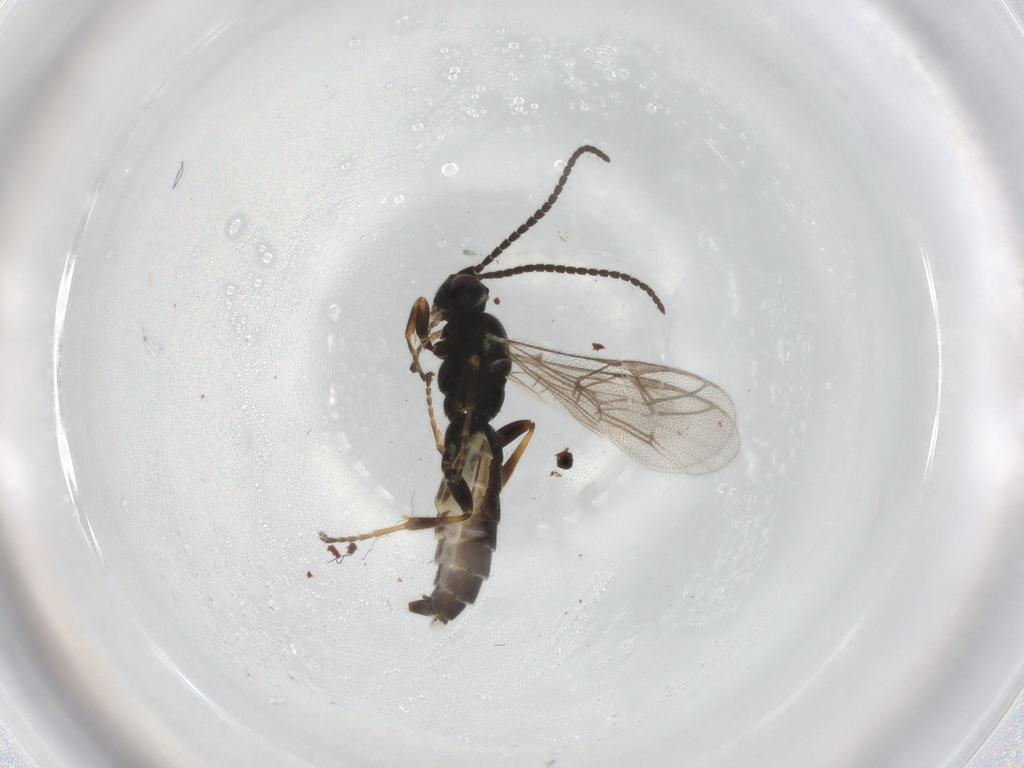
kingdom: Animalia
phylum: Arthropoda
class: Insecta
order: Hymenoptera
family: Ichneumonidae
